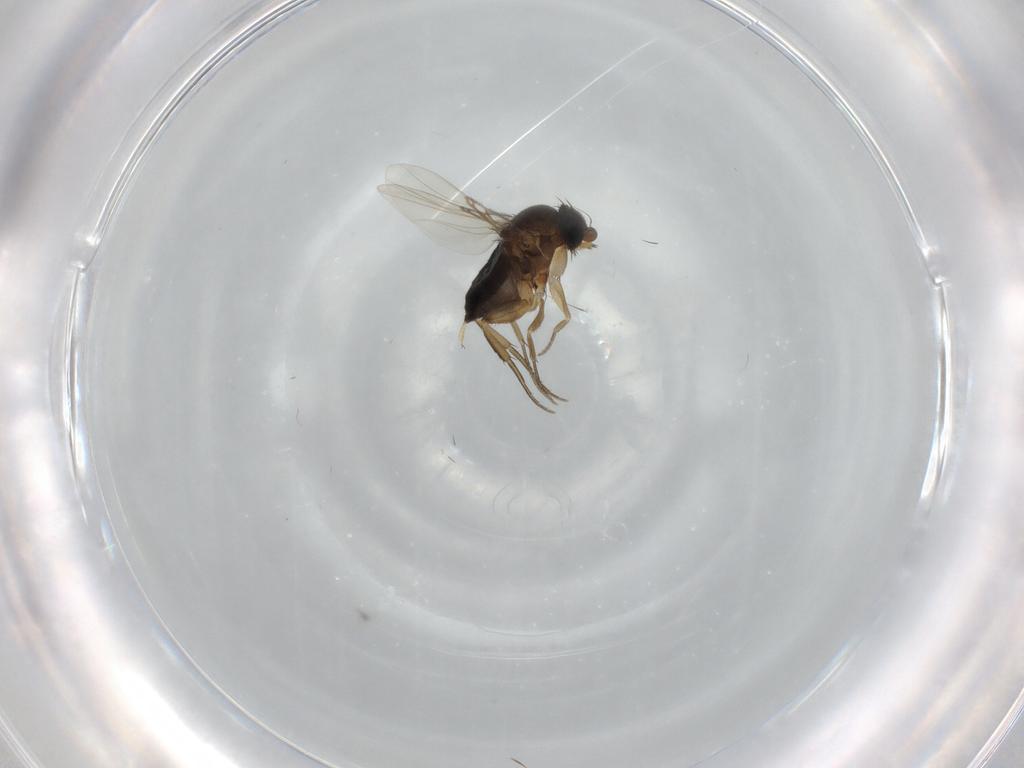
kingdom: Animalia
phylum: Arthropoda
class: Insecta
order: Diptera
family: Phoridae
